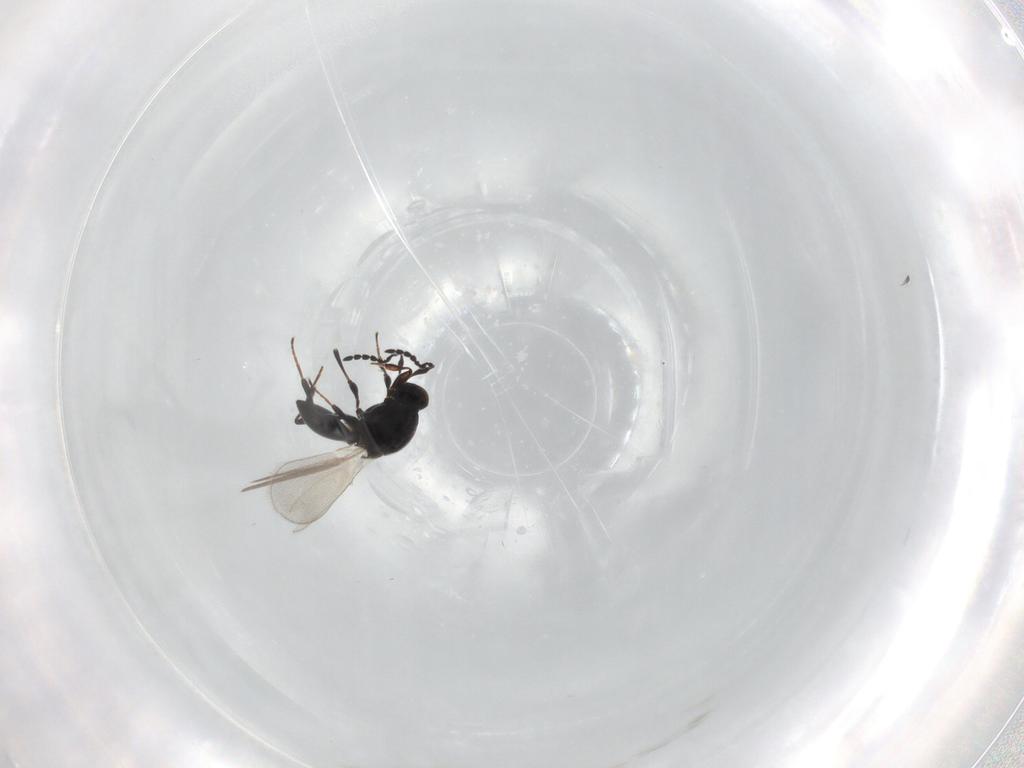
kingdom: Animalia
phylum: Arthropoda
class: Insecta
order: Hymenoptera
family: Platygastridae
